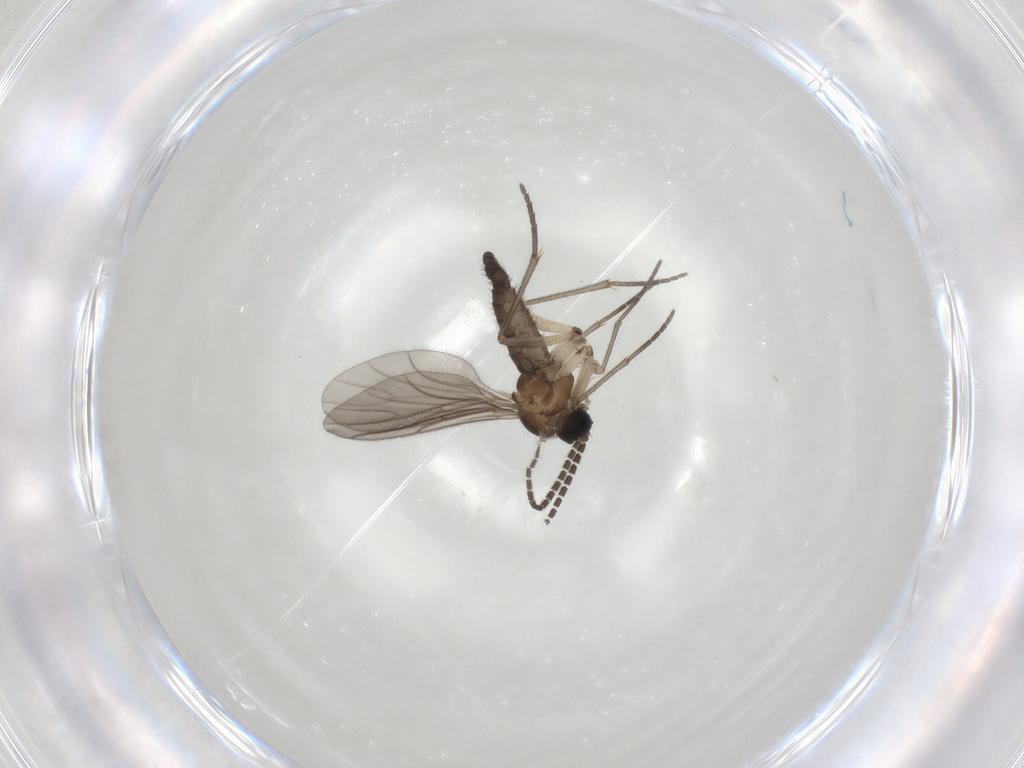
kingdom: Animalia
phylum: Arthropoda
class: Insecta
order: Diptera
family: Sciaridae
